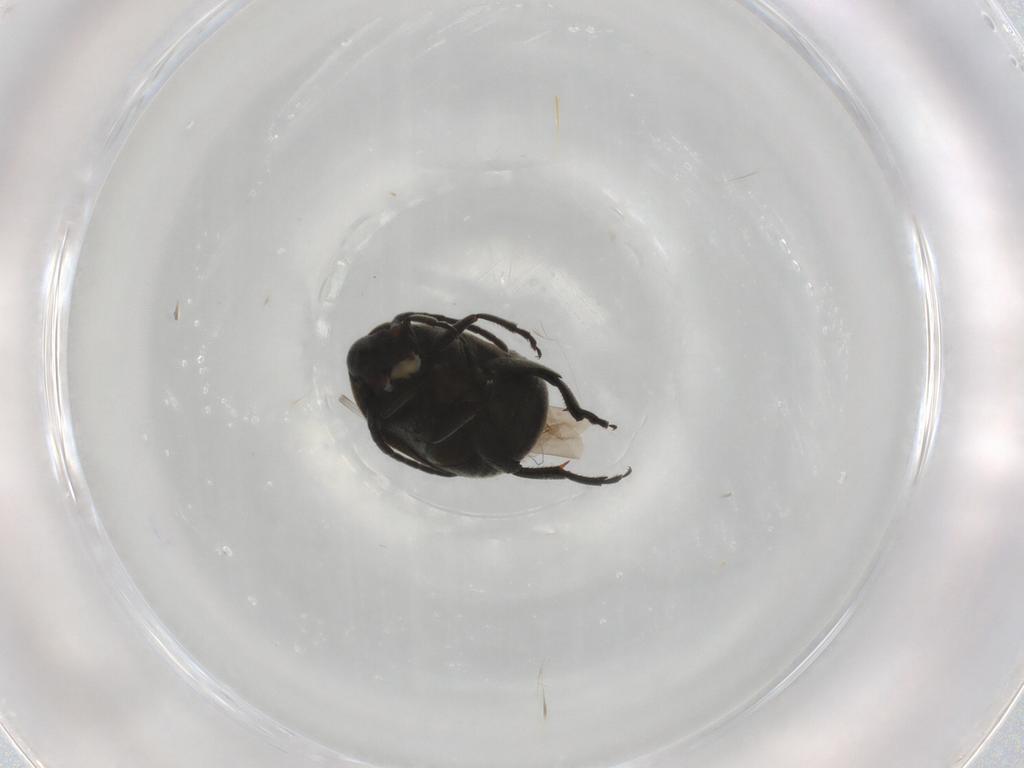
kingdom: Animalia
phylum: Arthropoda
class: Insecta
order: Coleoptera
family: Chrysomelidae
